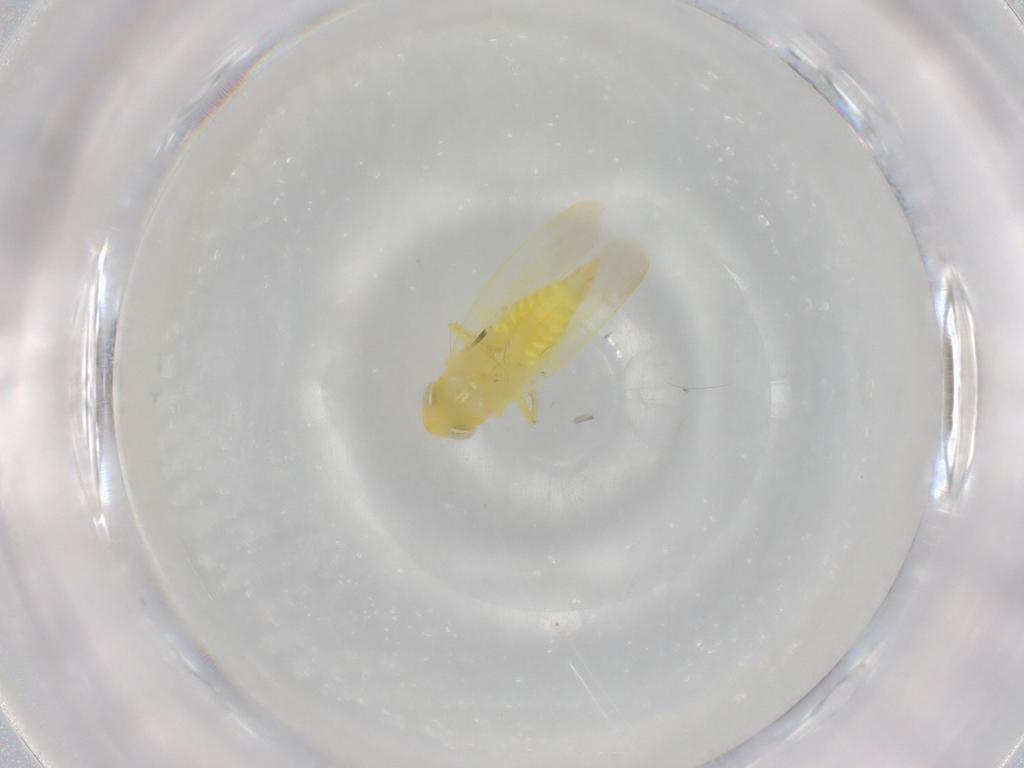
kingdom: Animalia
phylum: Arthropoda
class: Insecta
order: Hemiptera
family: Cicadellidae
